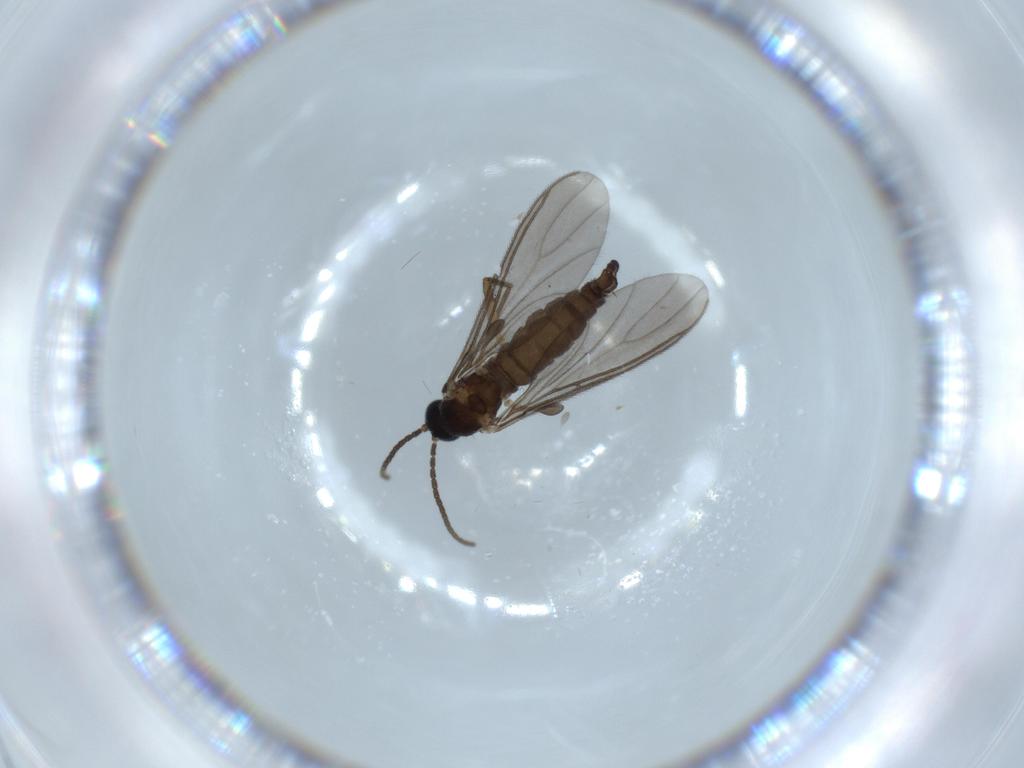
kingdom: Animalia
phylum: Arthropoda
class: Insecta
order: Diptera
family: Sciaridae
